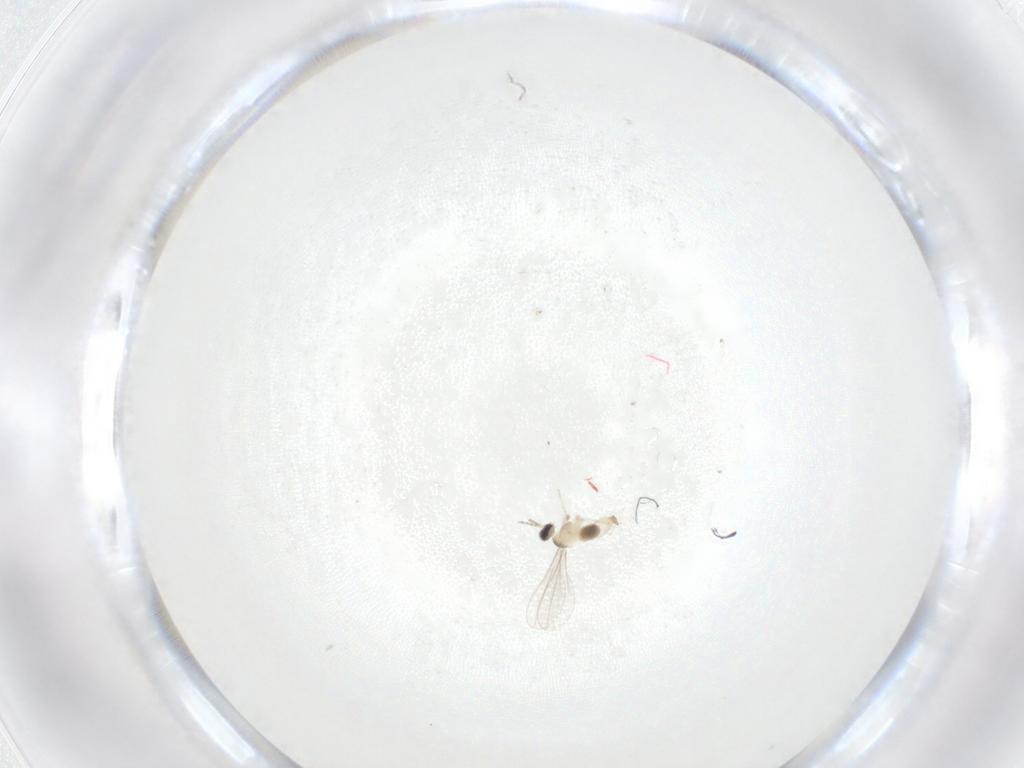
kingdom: Animalia
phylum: Arthropoda
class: Insecta
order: Diptera
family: Cecidomyiidae
